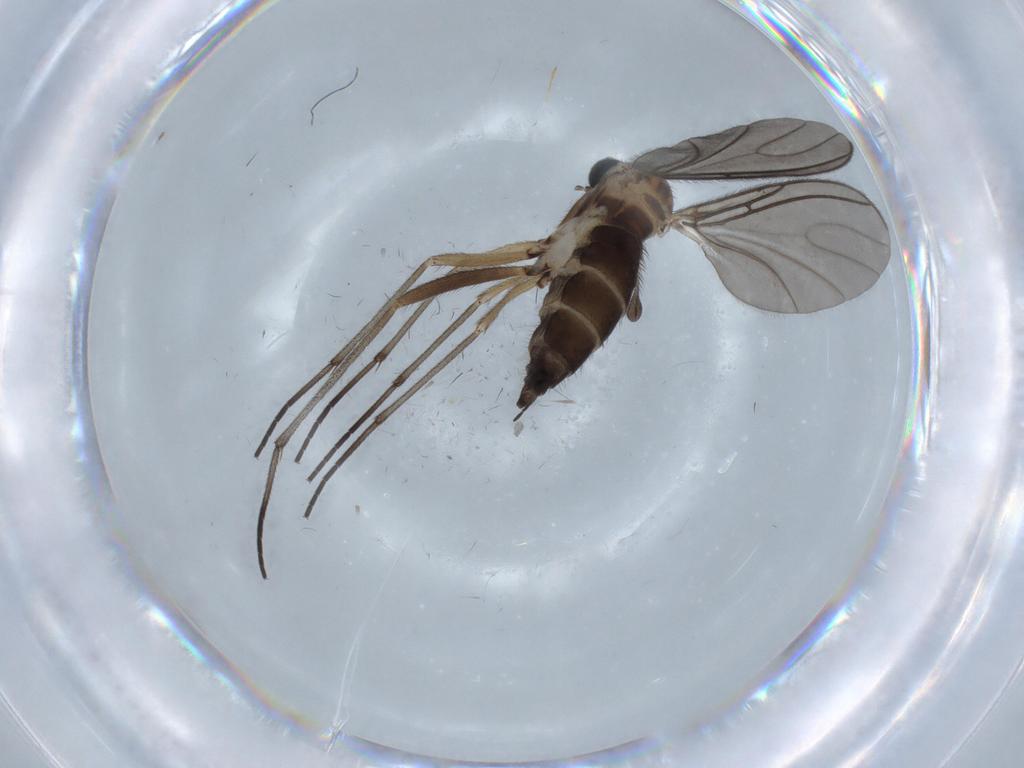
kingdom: Animalia
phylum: Arthropoda
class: Insecta
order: Diptera
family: Sciaridae
